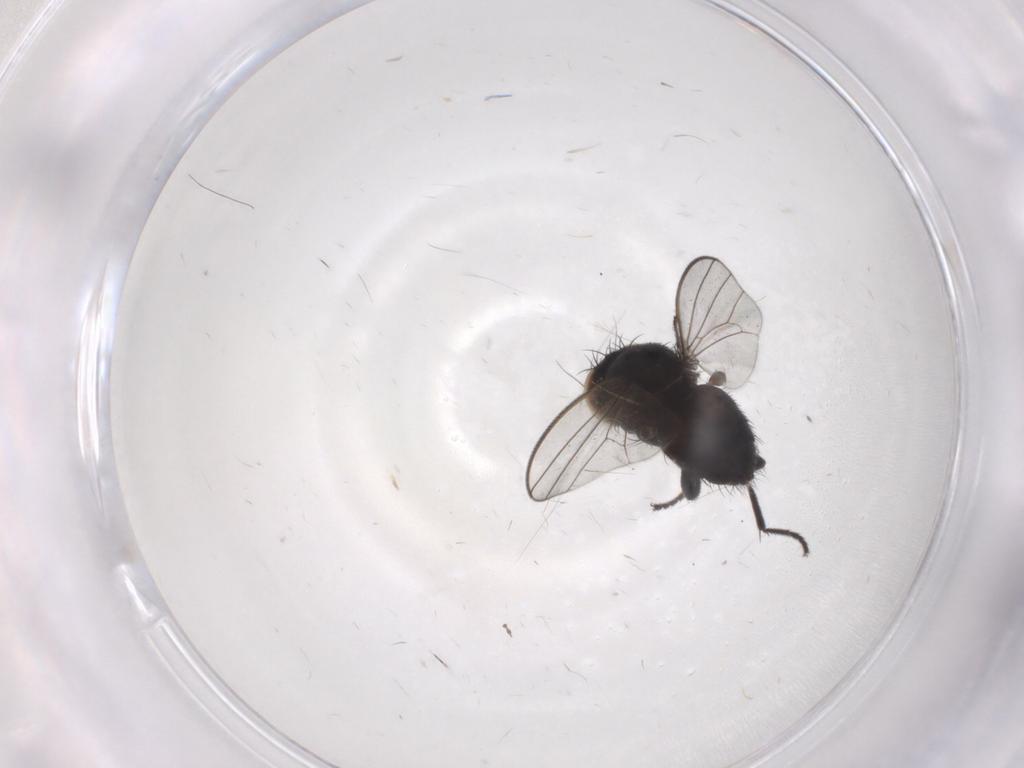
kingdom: Animalia
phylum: Arthropoda
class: Insecta
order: Diptera
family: Milichiidae
